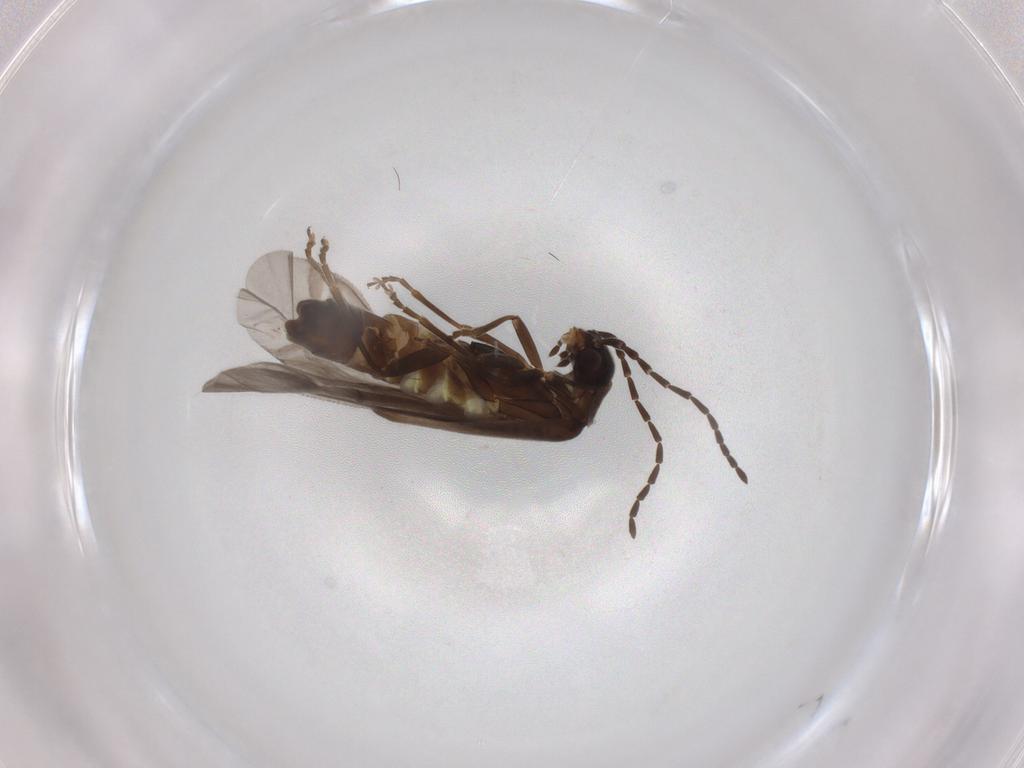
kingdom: Animalia
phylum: Arthropoda
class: Insecta
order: Coleoptera
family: Cantharidae
